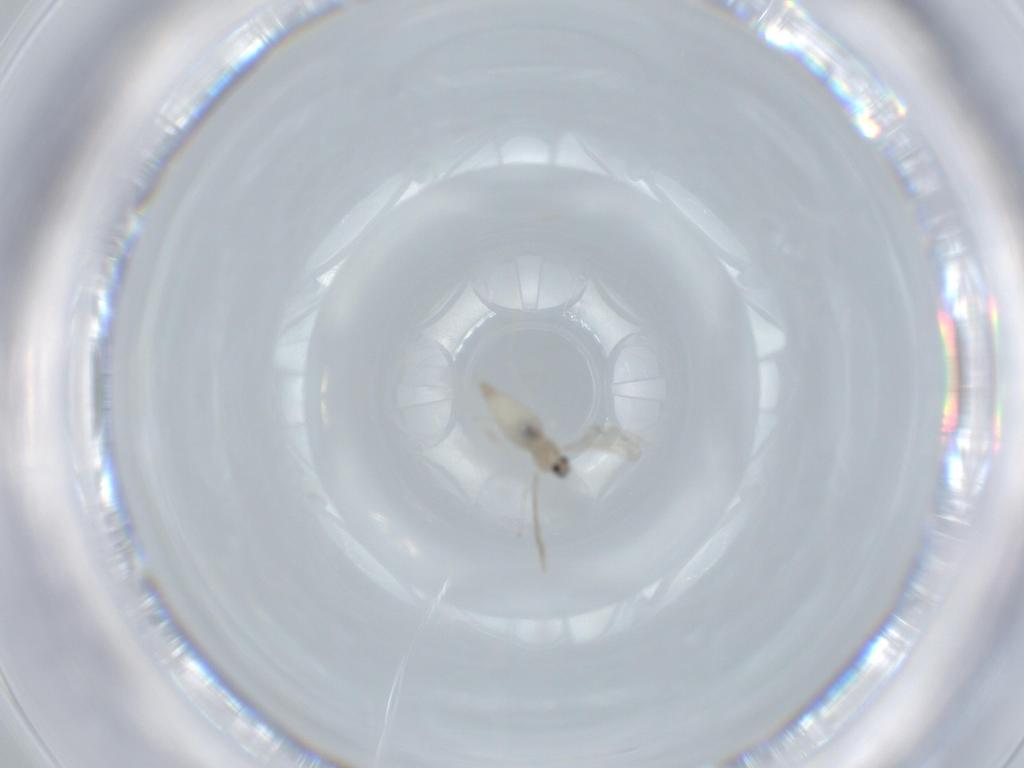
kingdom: Animalia
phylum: Arthropoda
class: Insecta
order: Diptera
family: Cecidomyiidae
